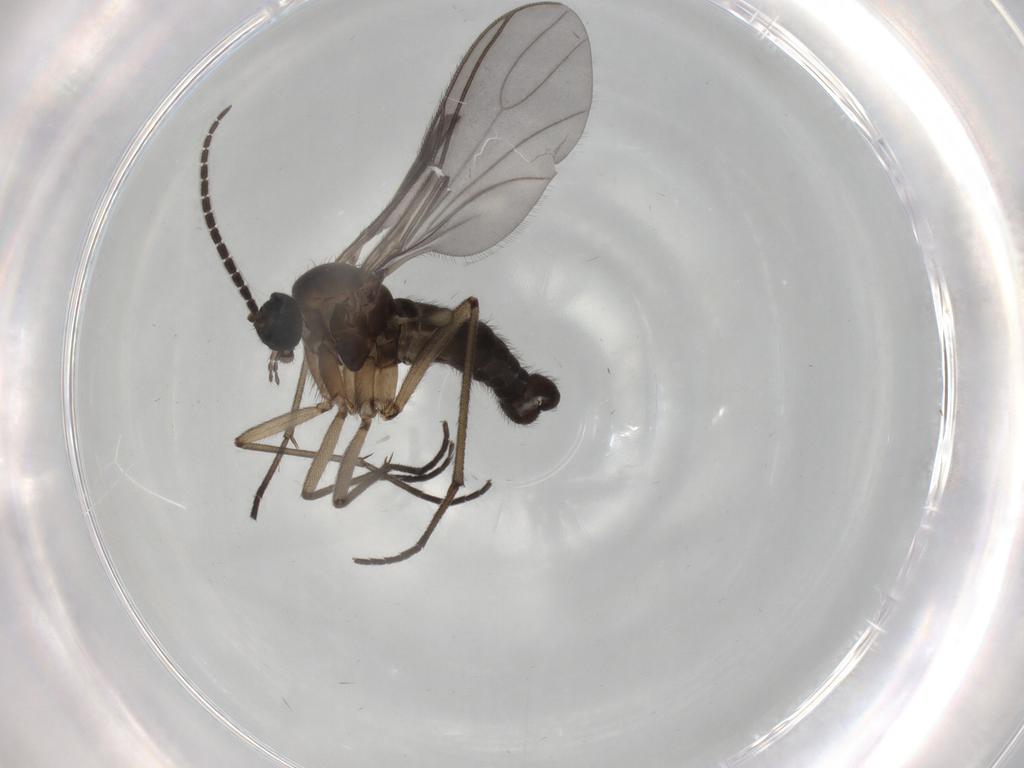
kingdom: Animalia
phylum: Arthropoda
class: Insecta
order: Diptera
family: Sciaridae
